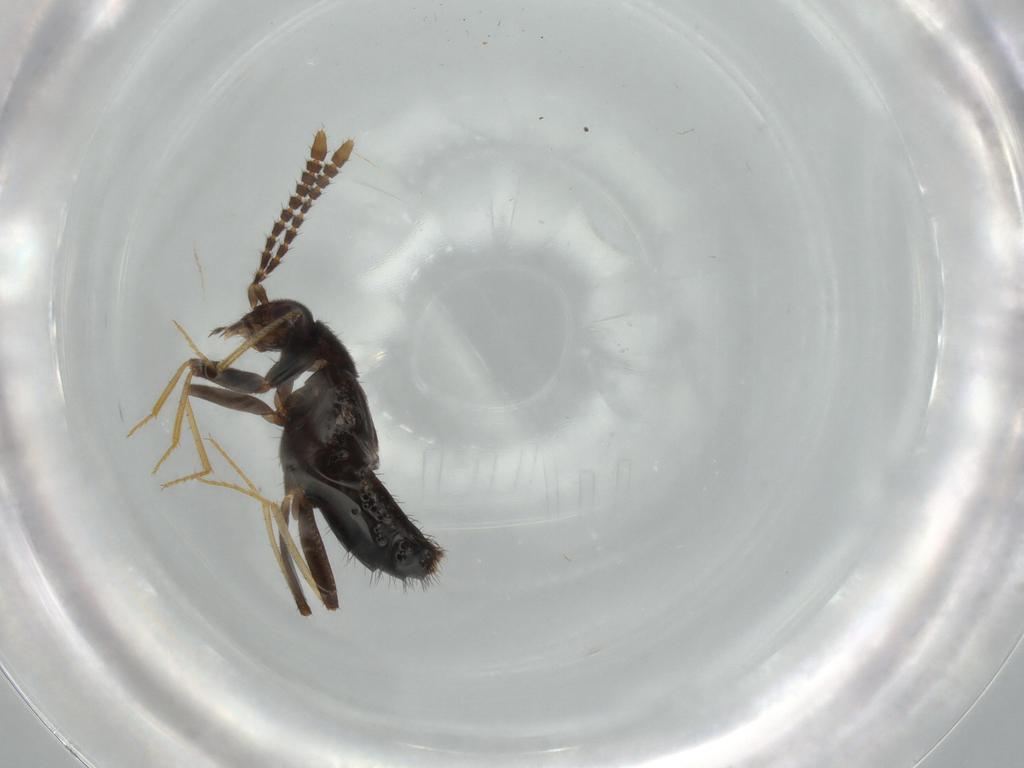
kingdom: Animalia
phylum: Arthropoda
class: Insecta
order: Coleoptera
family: Staphylinidae
